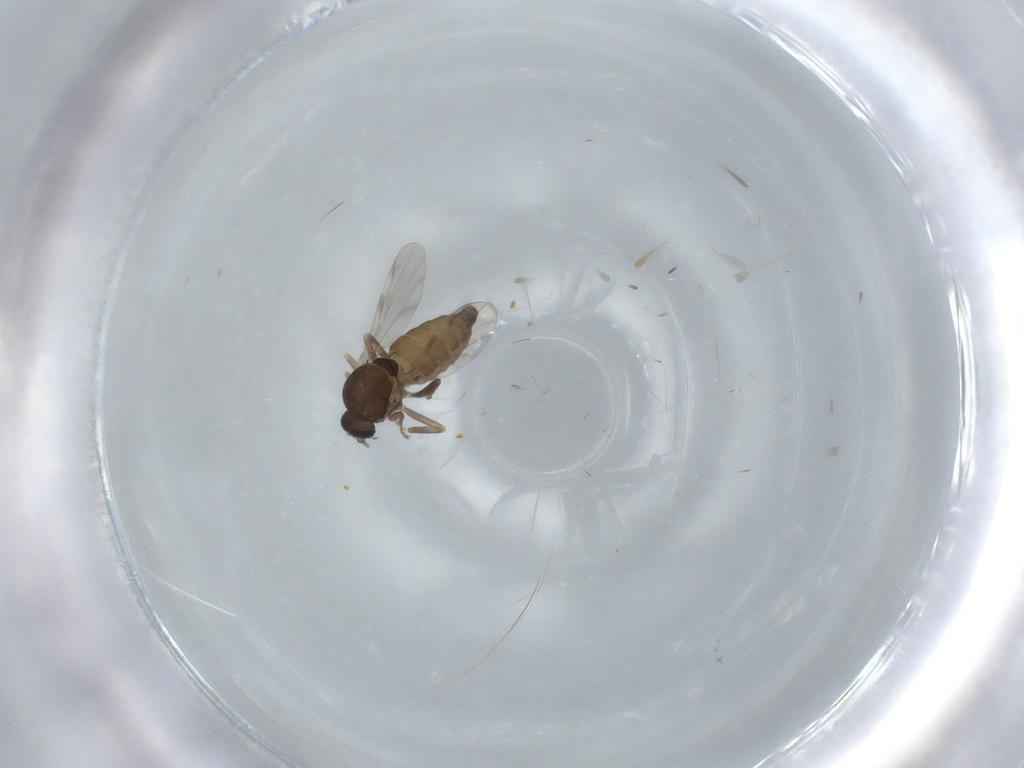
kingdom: Animalia
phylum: Arthropoda
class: Insecta
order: Diptera
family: Ceratopogonidae
